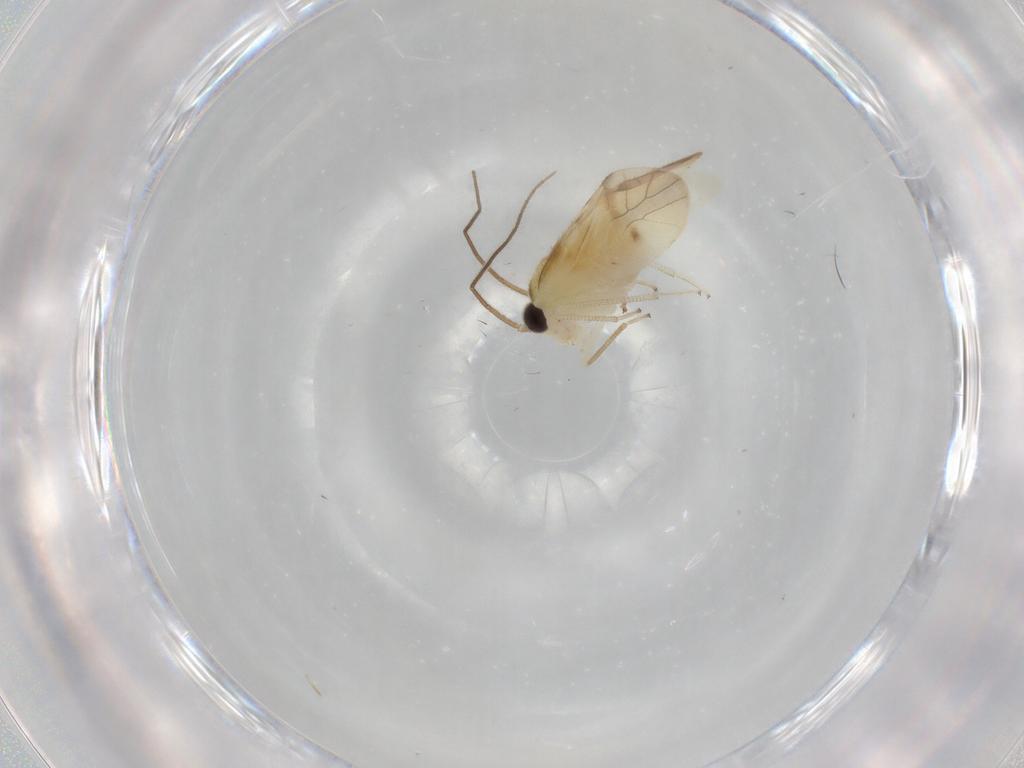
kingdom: Animalia
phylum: Arthropoda
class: Insecta
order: Psocodea
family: Caeciliusidae
